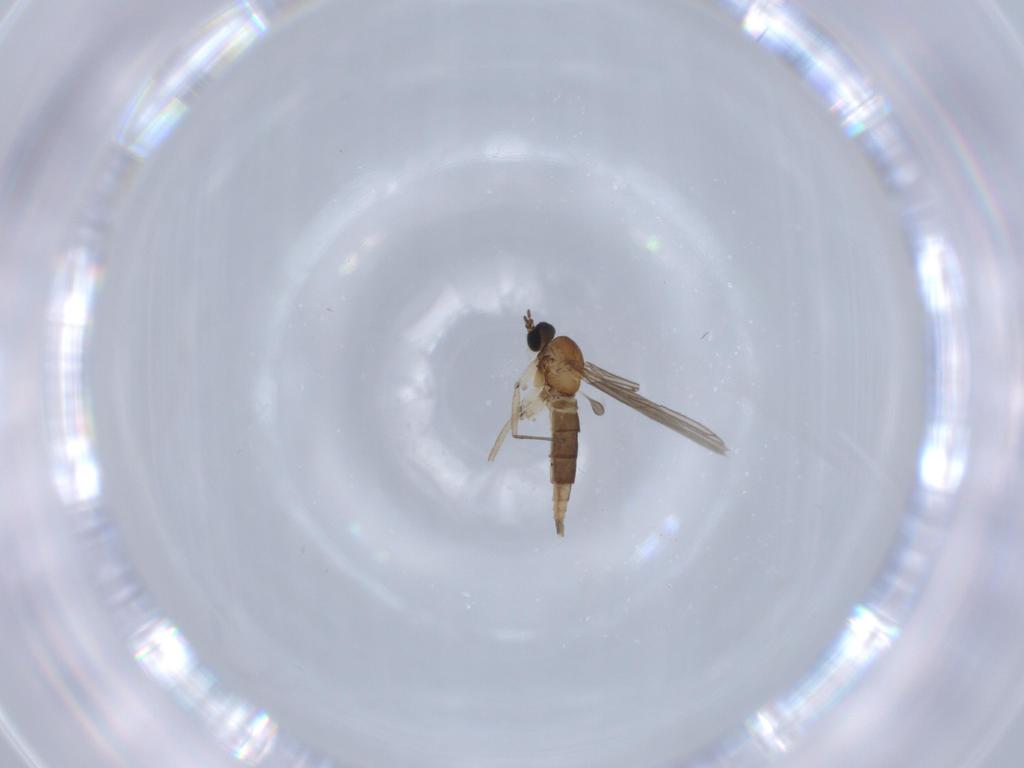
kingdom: Animalia
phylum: Arthropoda
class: Insecta
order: Diptera
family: Sciaridae
